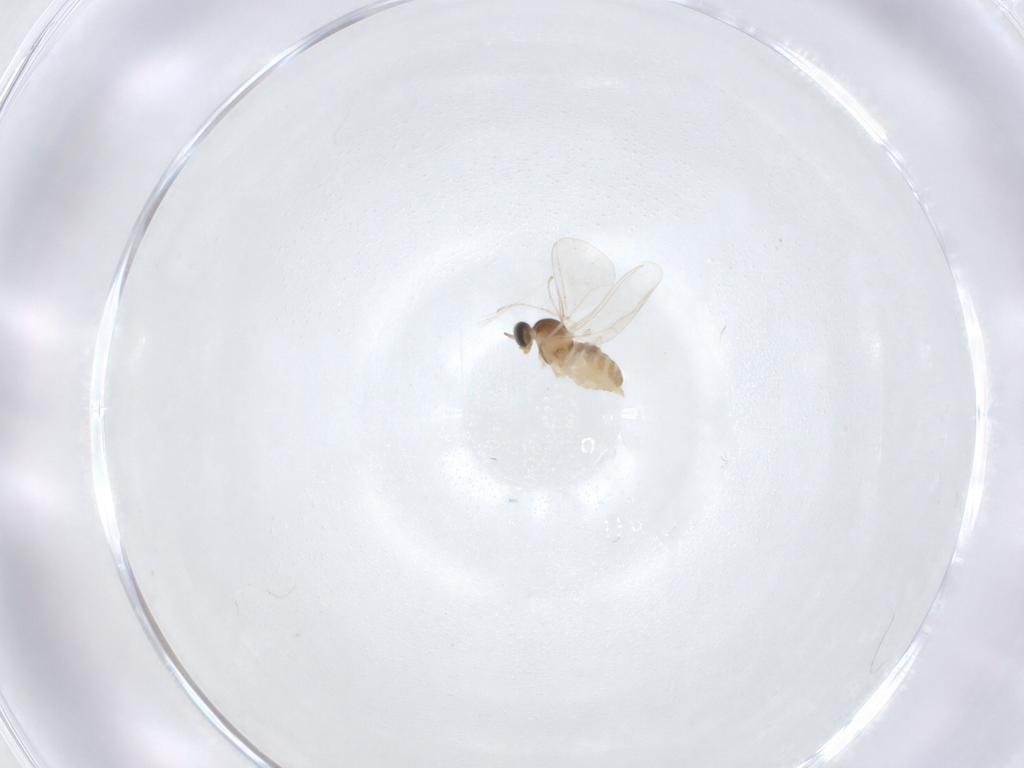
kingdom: Animalia
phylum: Arthropoda
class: Insecta
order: Diptera
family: Cecidomyiidae
